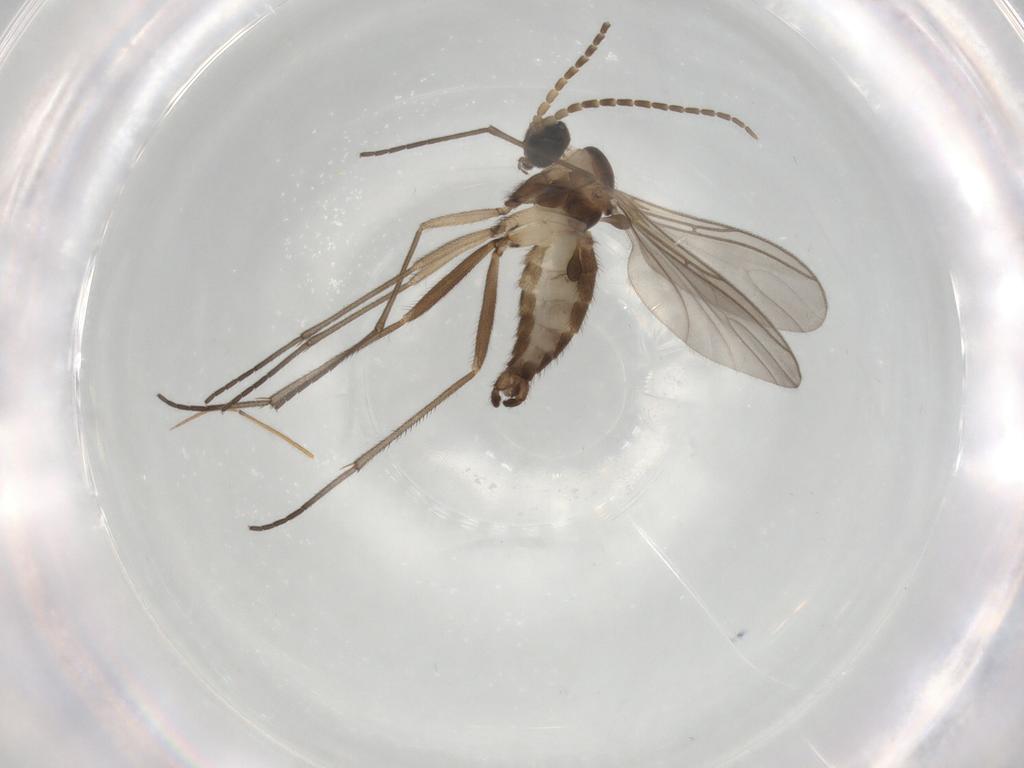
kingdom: Animalia
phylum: Arthropoda
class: Insecta
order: Diptera
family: Sciaridae
